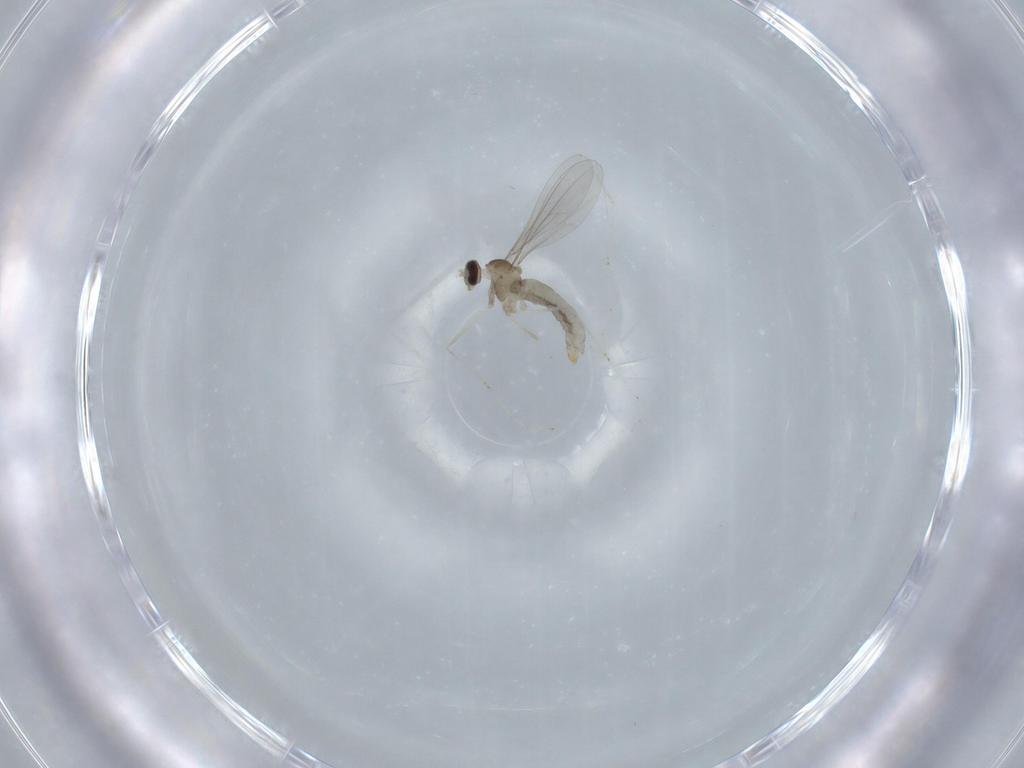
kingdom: Animalia
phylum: Arthropoda
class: Insecta
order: Diptera
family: Cecidomyiidae
